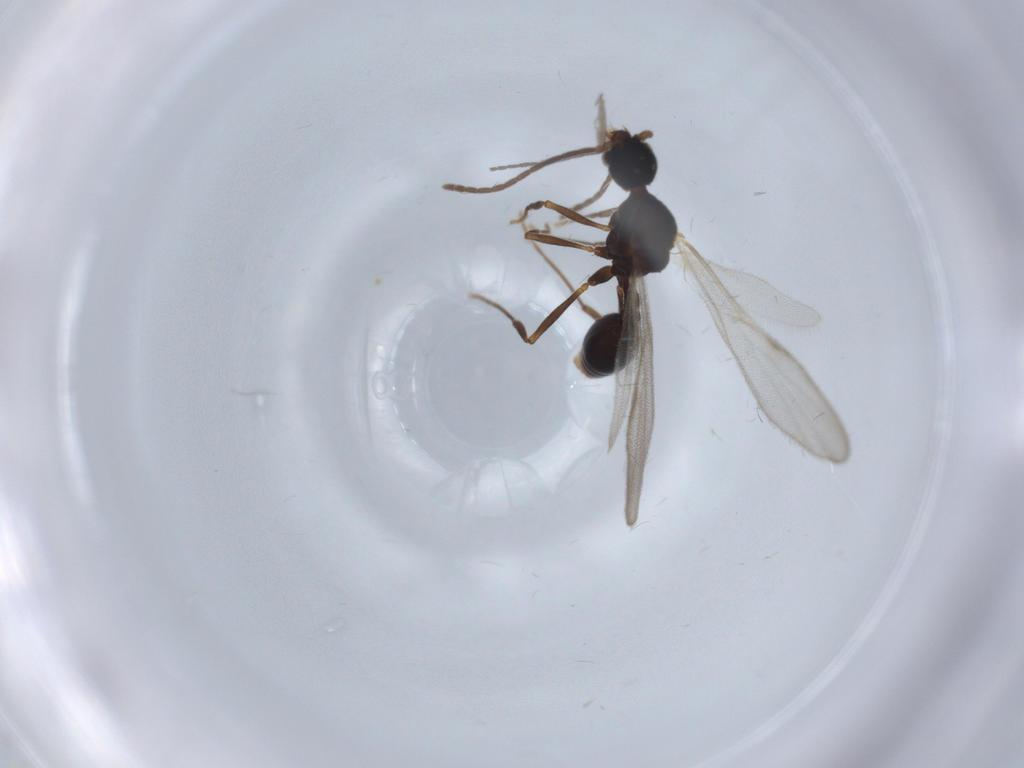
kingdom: Animalia
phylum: Arthropoda
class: Insecta
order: Hymenoptera
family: Formicidae
